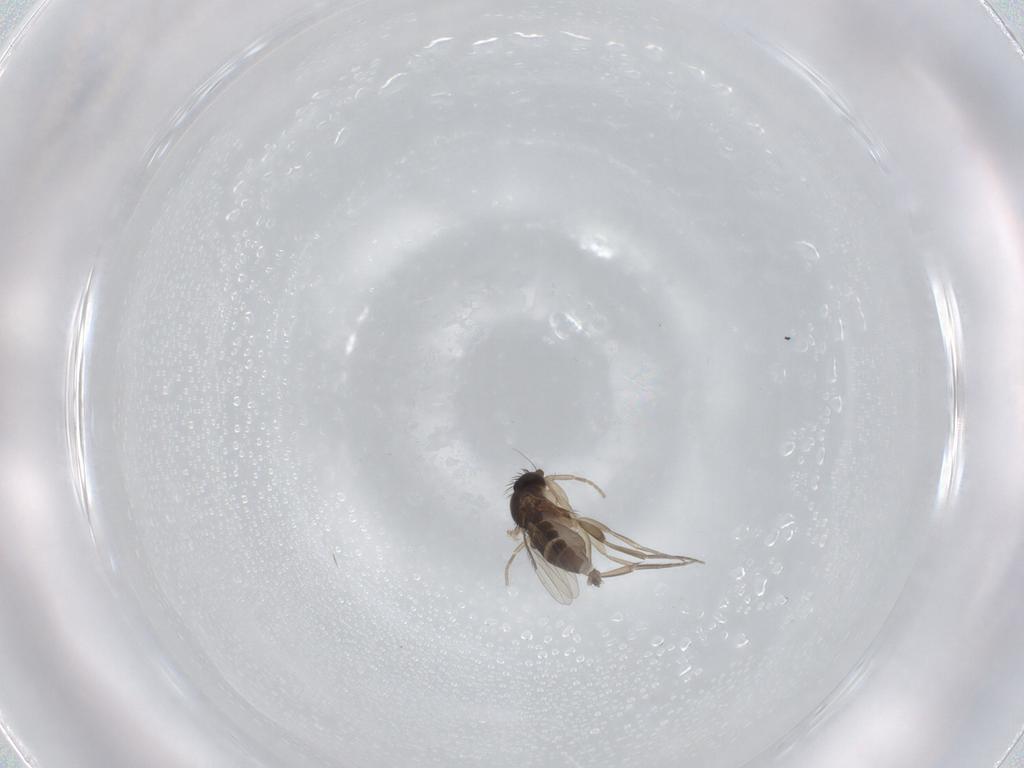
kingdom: Animalia
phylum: Arthropoda
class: Insecta
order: Diptera
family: Phoridae
